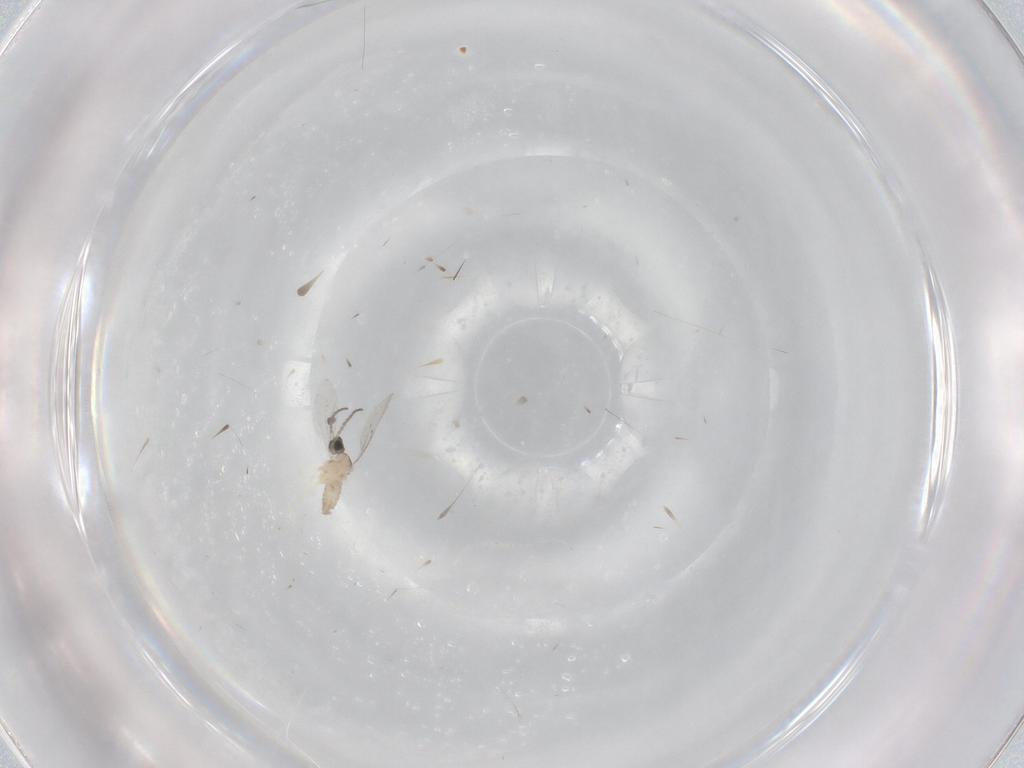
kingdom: Animalia
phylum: Arthropoda
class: Insecta
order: Diptera
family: Cecidomyiidae
